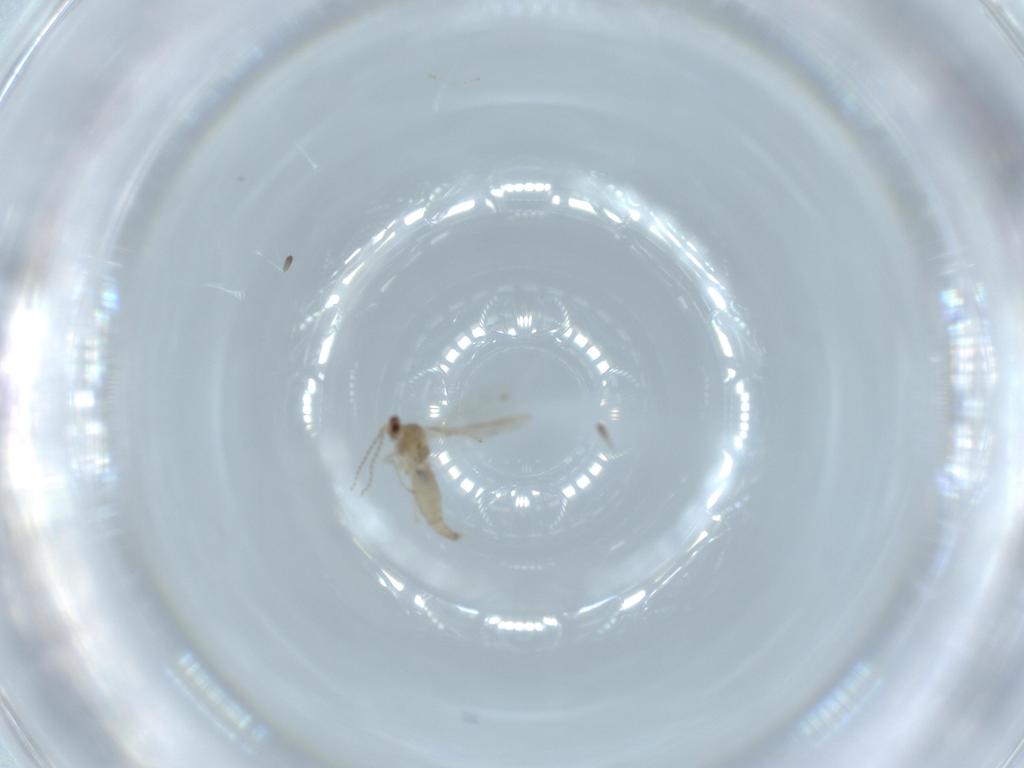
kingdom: Animalia
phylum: Arthropoda
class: Insecta
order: Diptera
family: Cecidomyiidae
